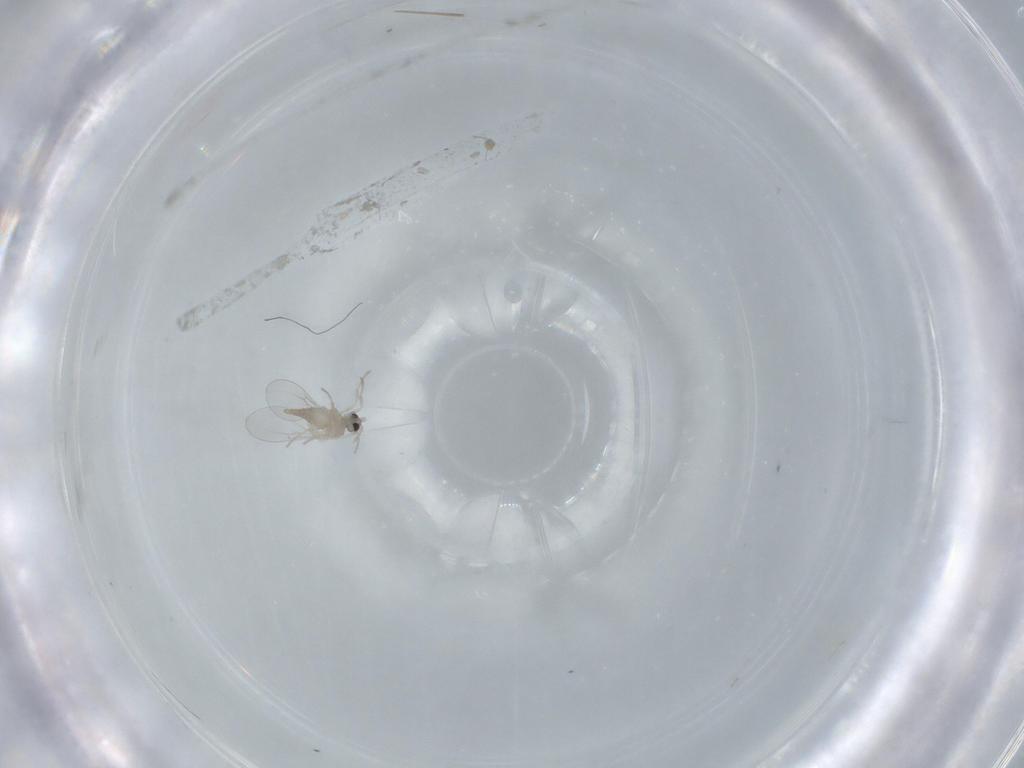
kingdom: Animalia
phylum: Arthropoda
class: Insecta
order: Diptera
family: Cecidomyiidae
